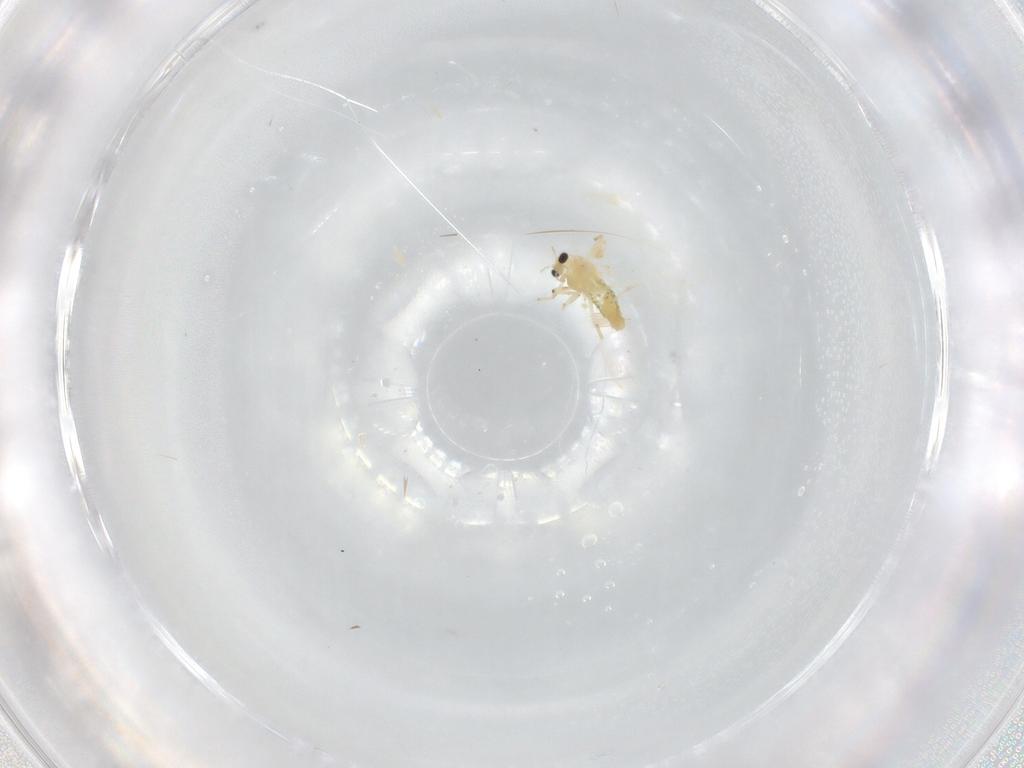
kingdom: Animalia
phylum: Arthropoda
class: Insecta
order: Diptera
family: Chironomidae
